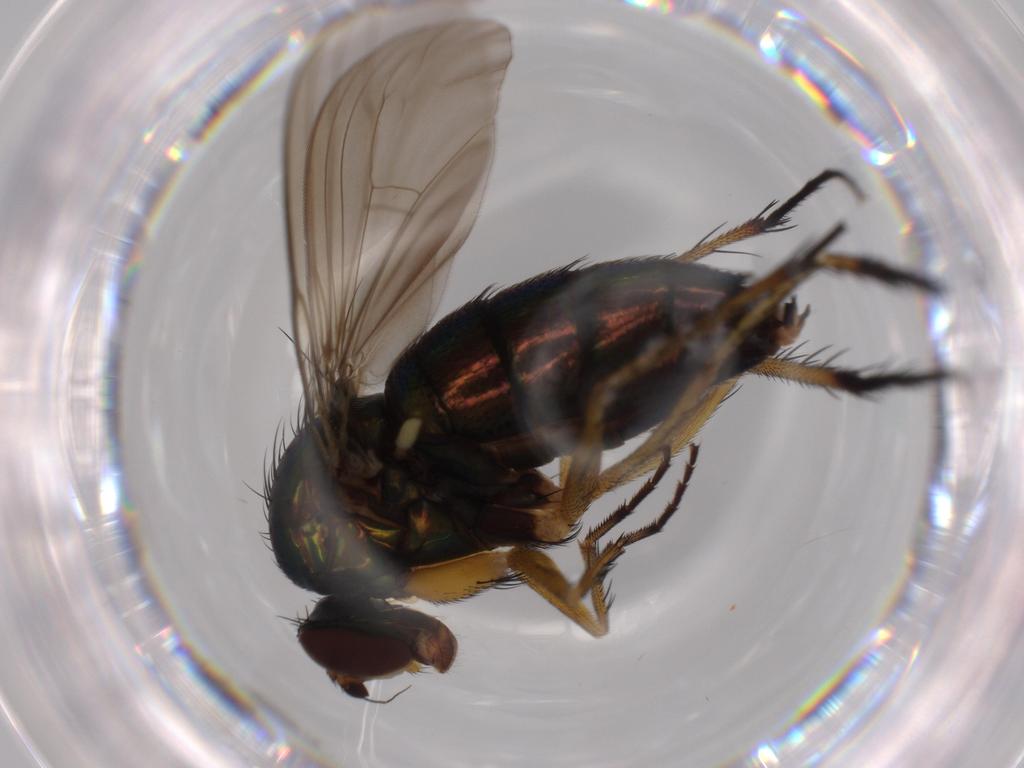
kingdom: Animalia
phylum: Arthropoda
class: Insecta
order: Diptera
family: Dolichopodidae
